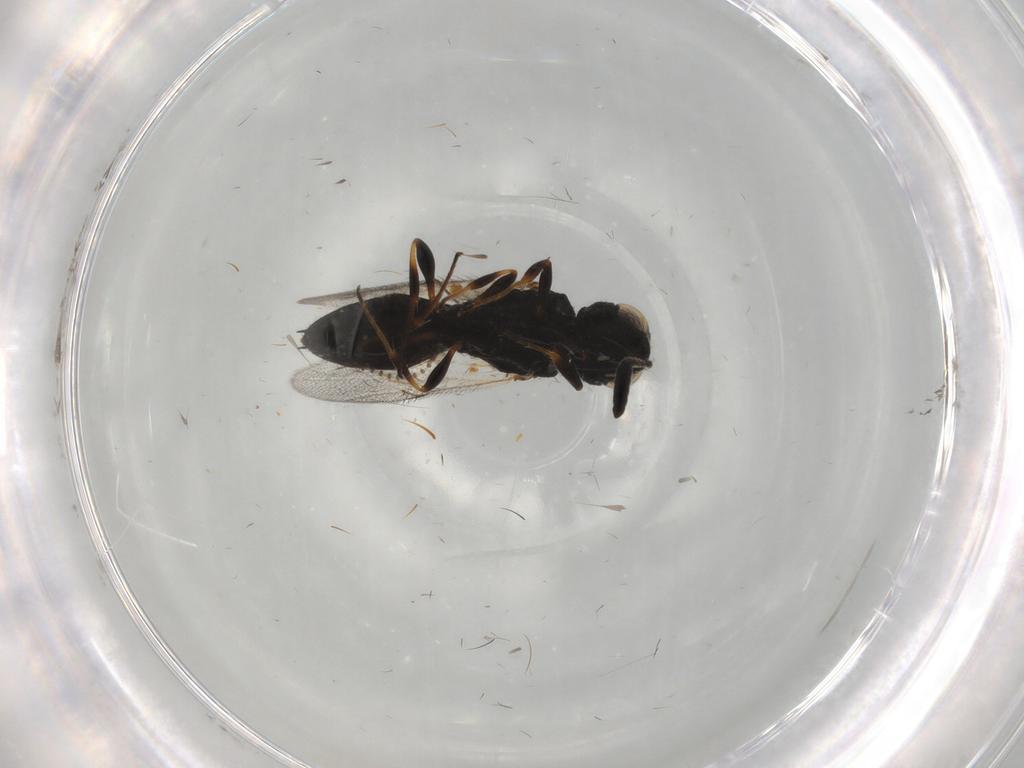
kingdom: Animalia
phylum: Arthropoda
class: Insecta
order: Hymenoptera
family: Scelionidae
